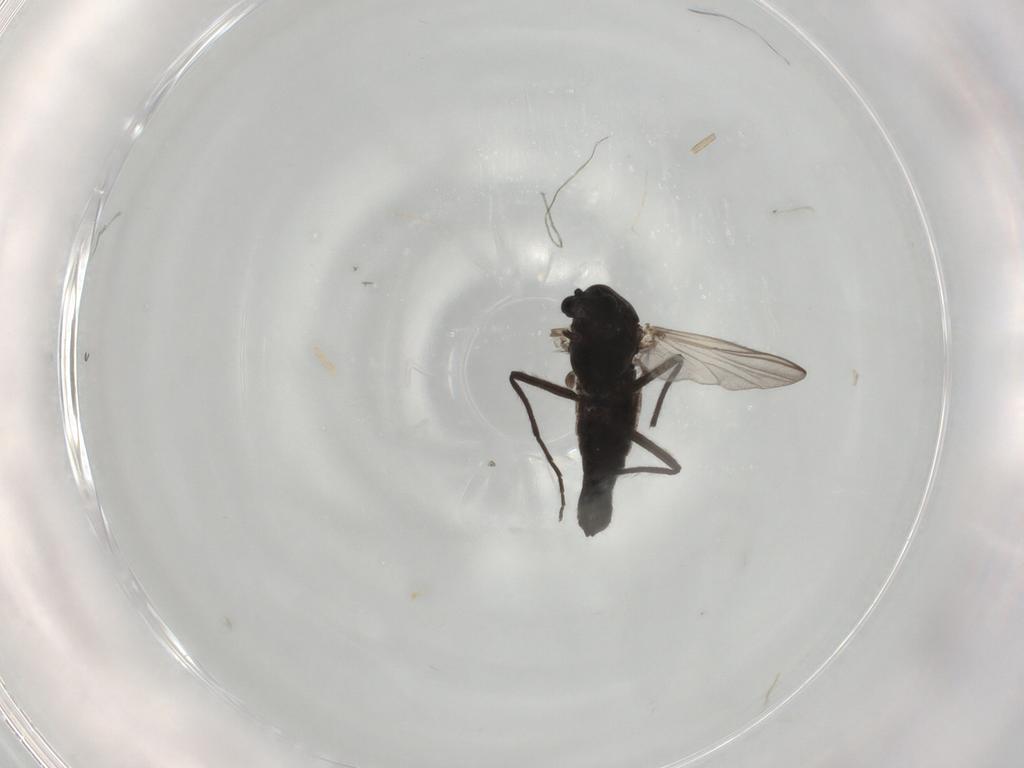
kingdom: Animalia
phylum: Arthropoda
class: Insecta
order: Diptera
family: Chironomidae
